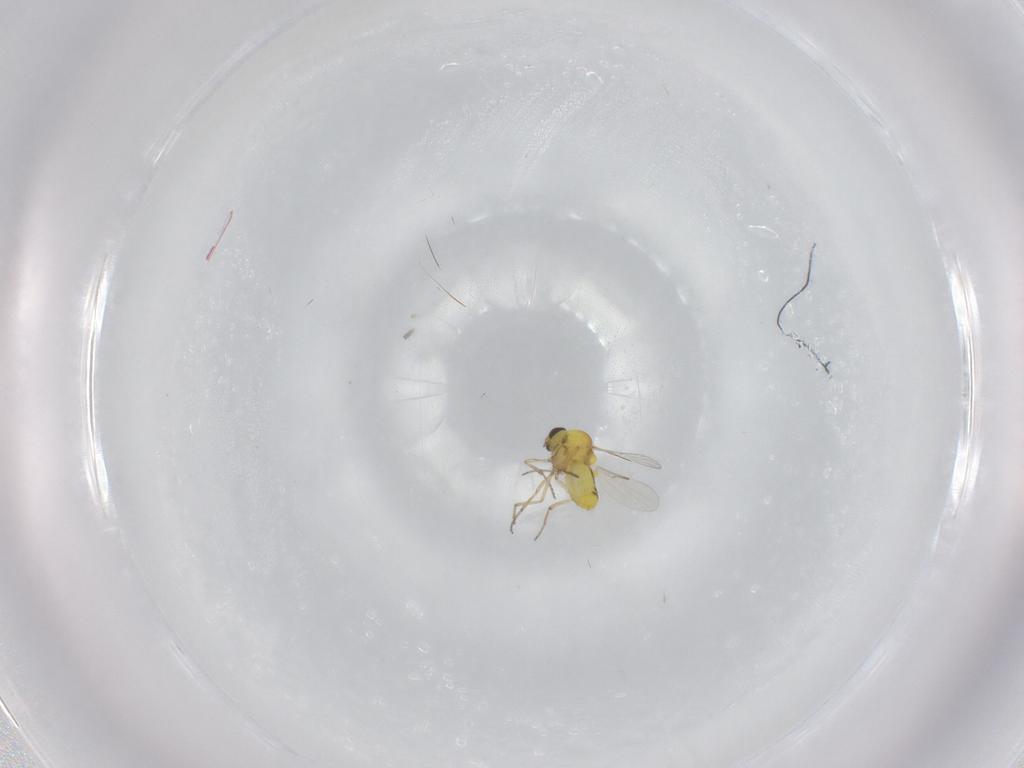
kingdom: Animalia
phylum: Arthropoda
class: Insecta
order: Diptera
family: Ceratopogonidae
